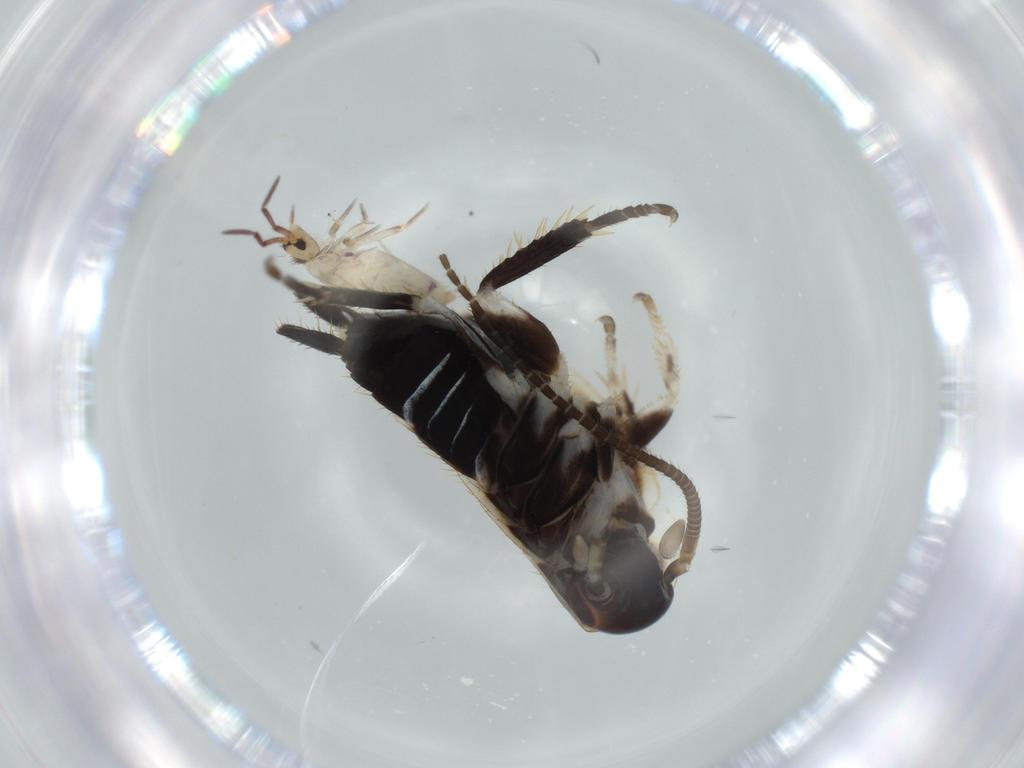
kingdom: Animalia
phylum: Arthropoda
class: Insecta
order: Blattodea
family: Ectobiidae
